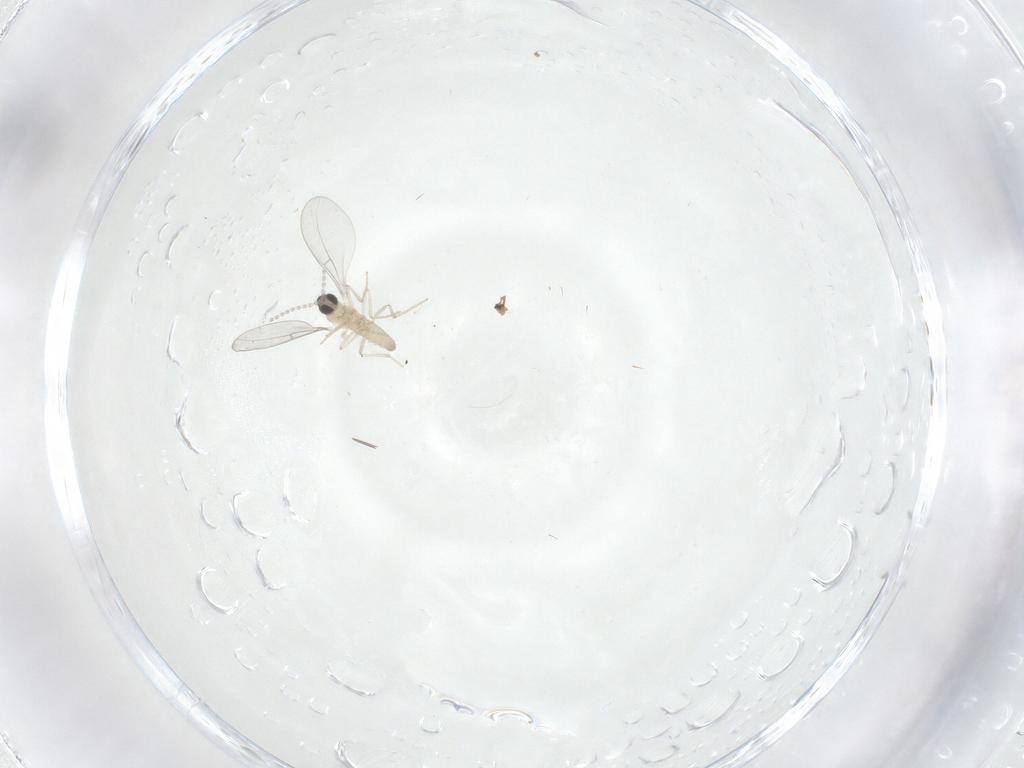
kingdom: Animalia
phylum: Arthropoda
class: Insecta
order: Diptera
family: Cecidomyiidae
